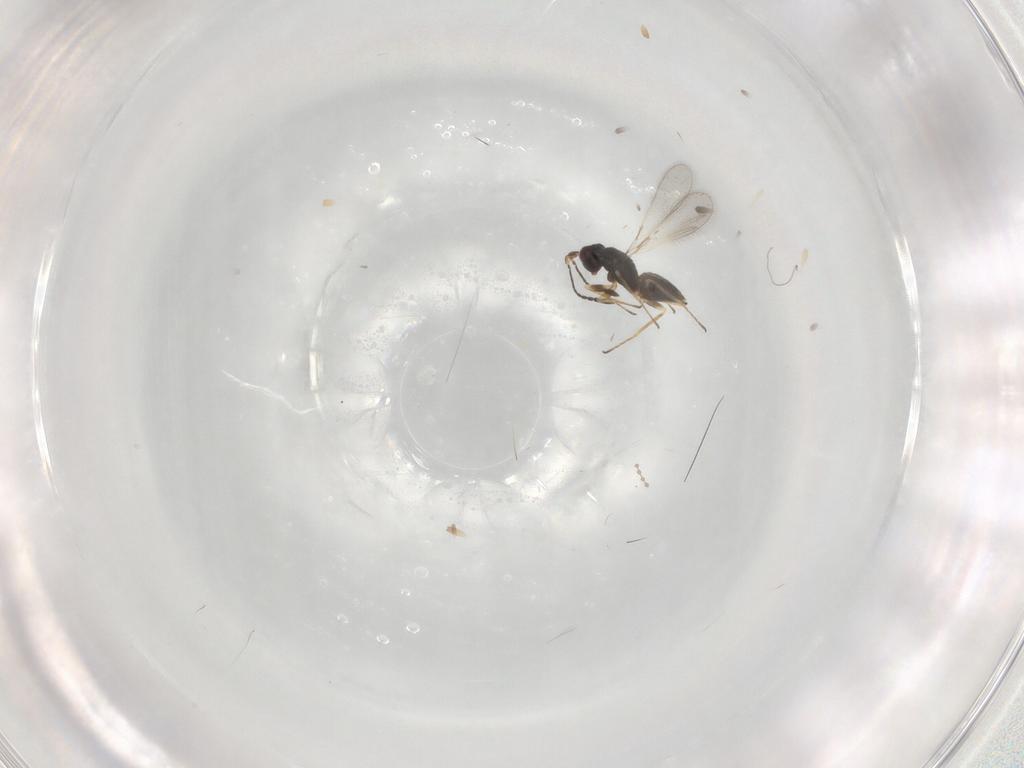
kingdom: Animalia
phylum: Arthropoda
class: Insecta
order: Hymenoptera
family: Mymaridae
